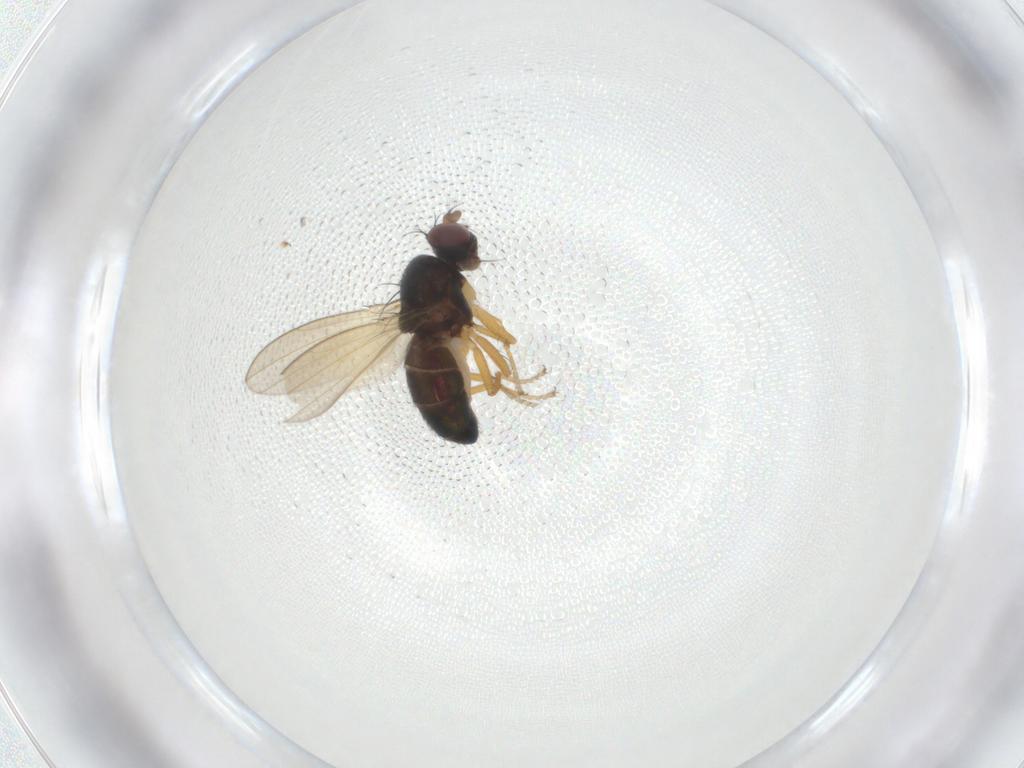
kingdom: Animalia
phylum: Arthropoda
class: Insecta
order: Diptera
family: Ephydridae
